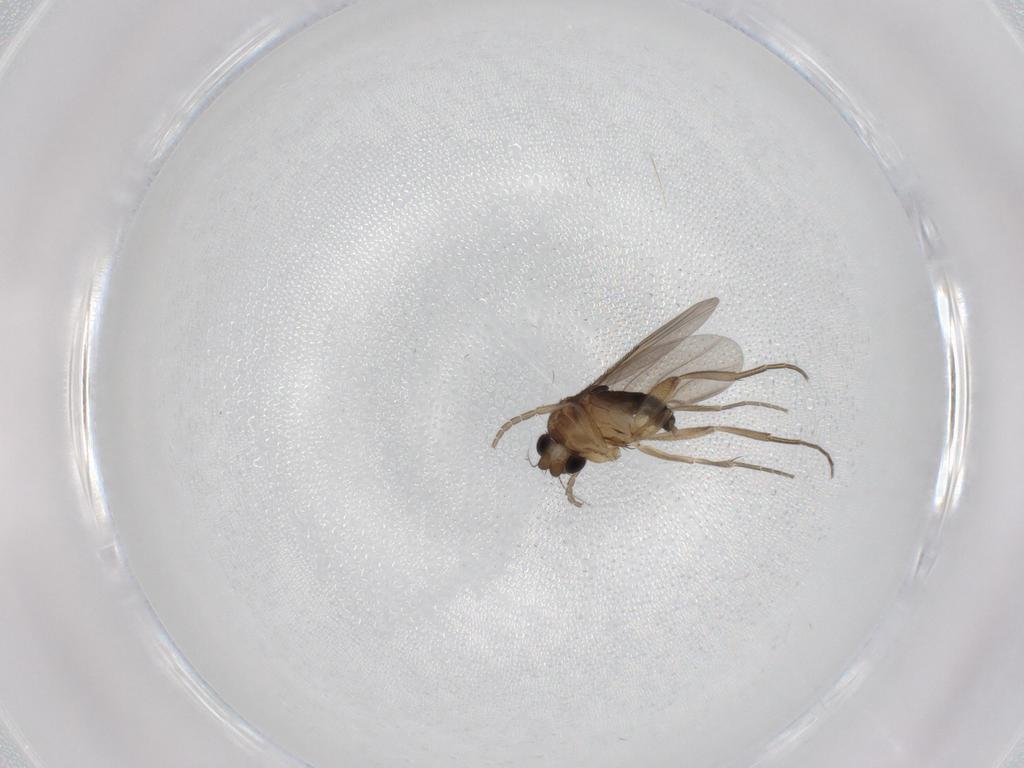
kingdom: Animalia
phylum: Arthropoda
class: Insecta
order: Diptera
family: Phoridae
